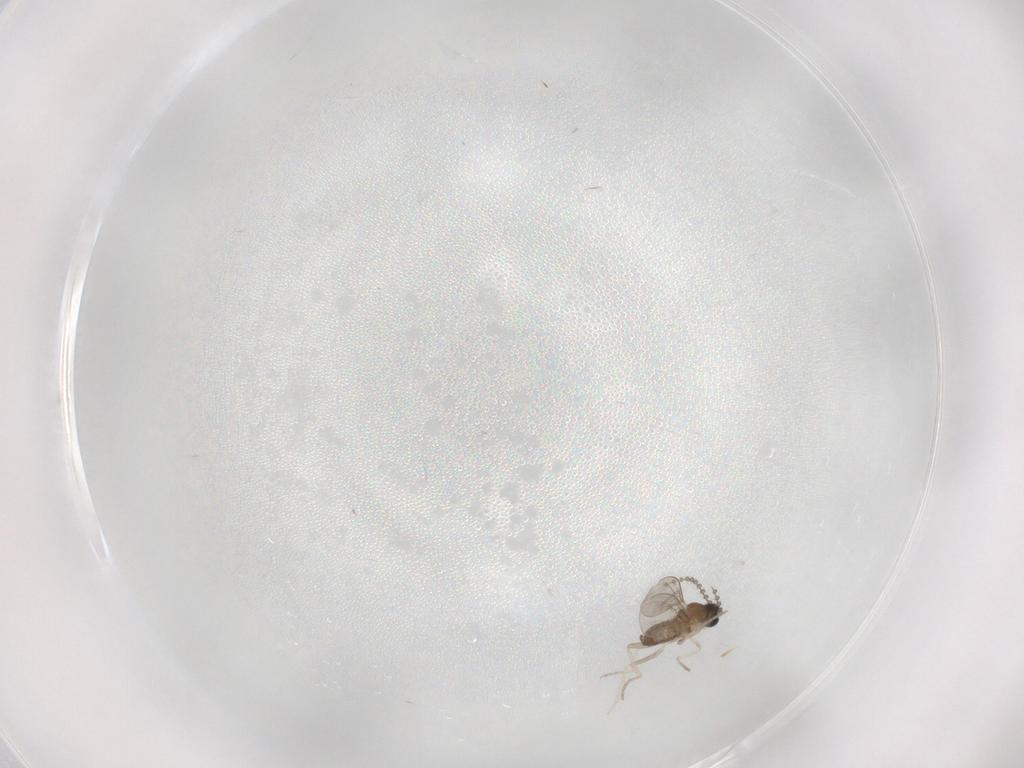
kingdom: Animalia
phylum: Arthropoda
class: Insecta
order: Diptera
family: Cecidomyiidae
